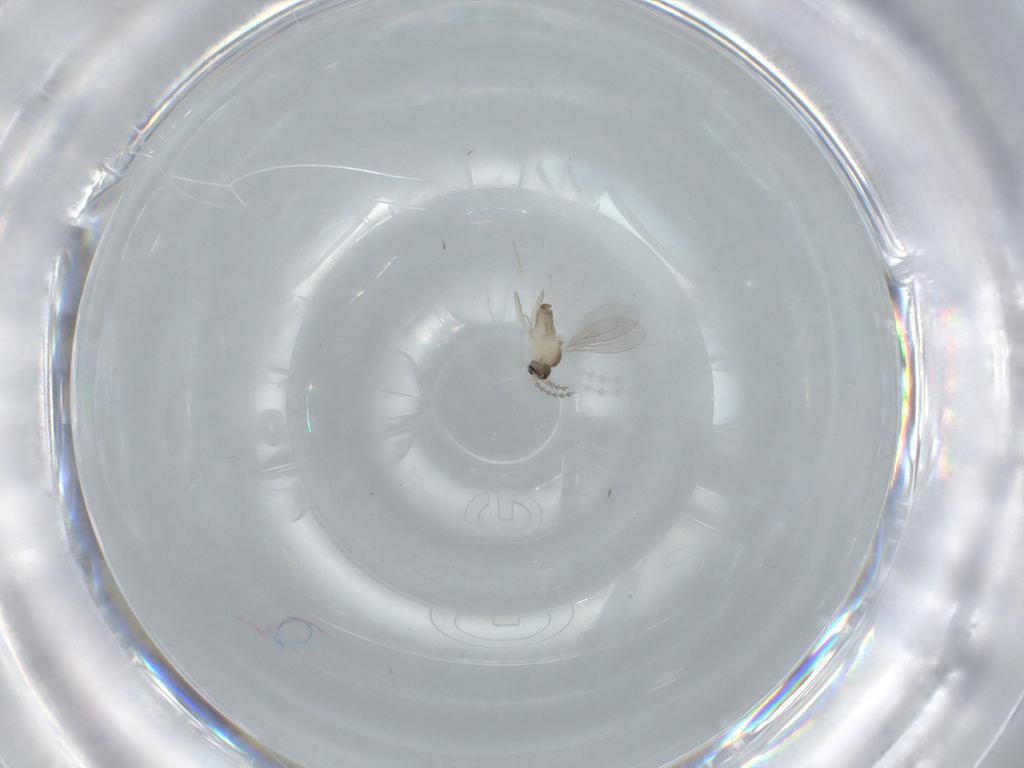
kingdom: Animalia
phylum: Arthropoda
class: Insecta
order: Diptera
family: Cecidomyiidae
